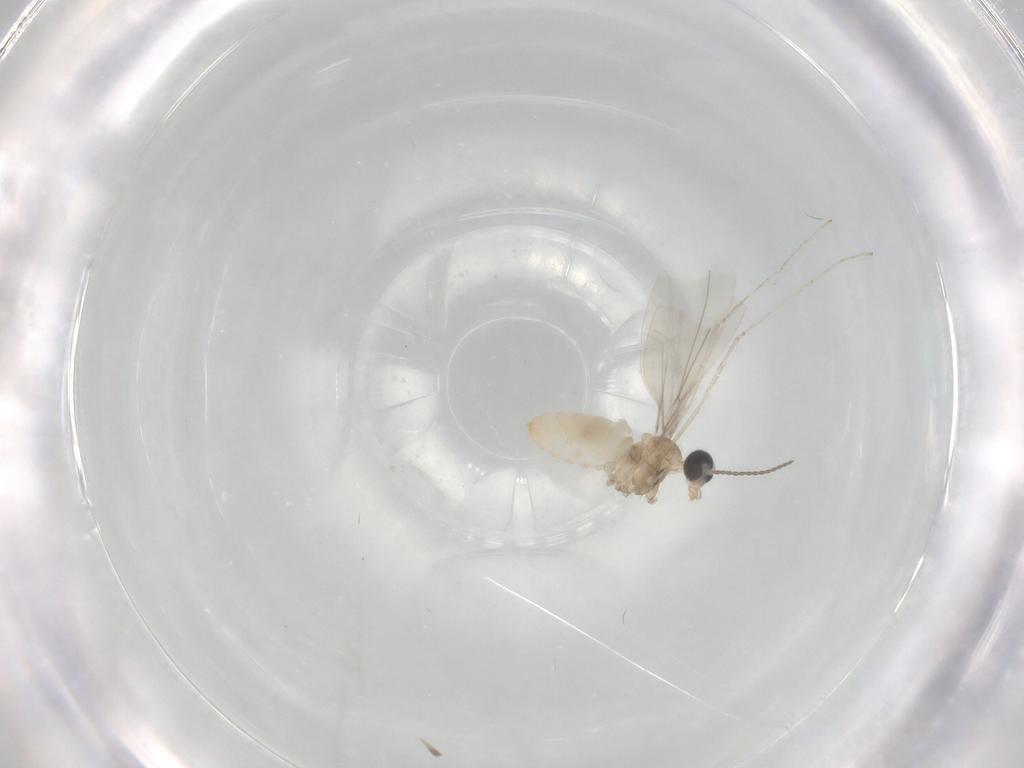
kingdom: Animalia
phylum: Arthropoda
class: Insecta
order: Diptera
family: Cecidomyiidae
